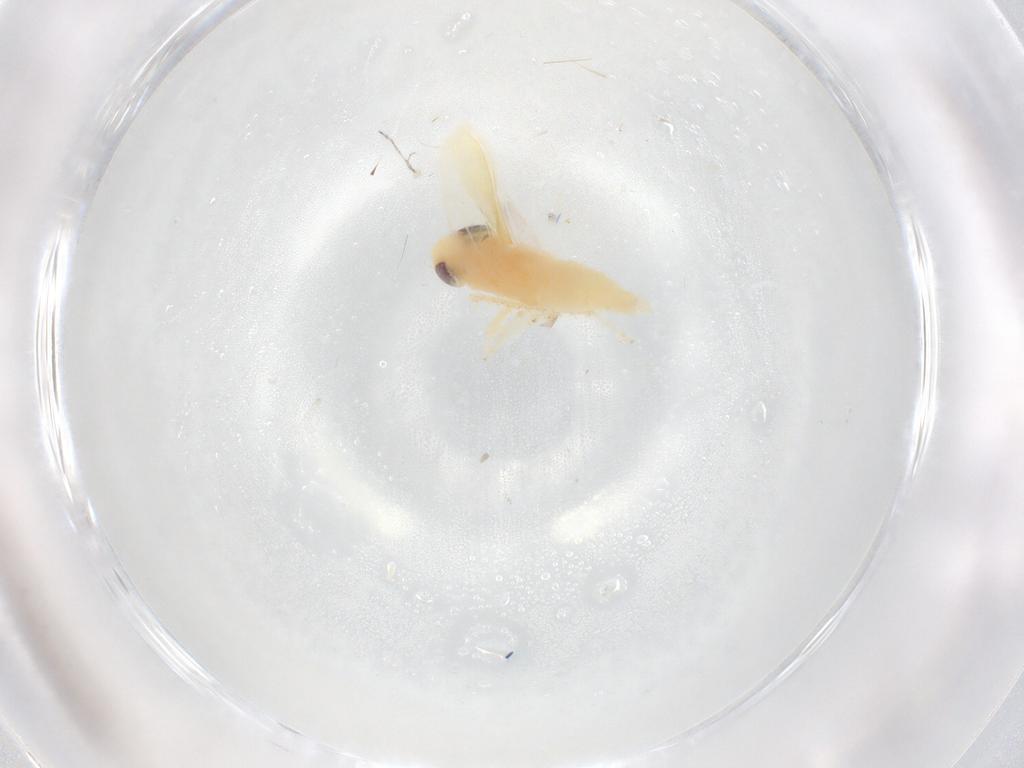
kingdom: Animalia
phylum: Arthropoda
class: Insecta
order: Hemiptera
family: Cicadellidae
